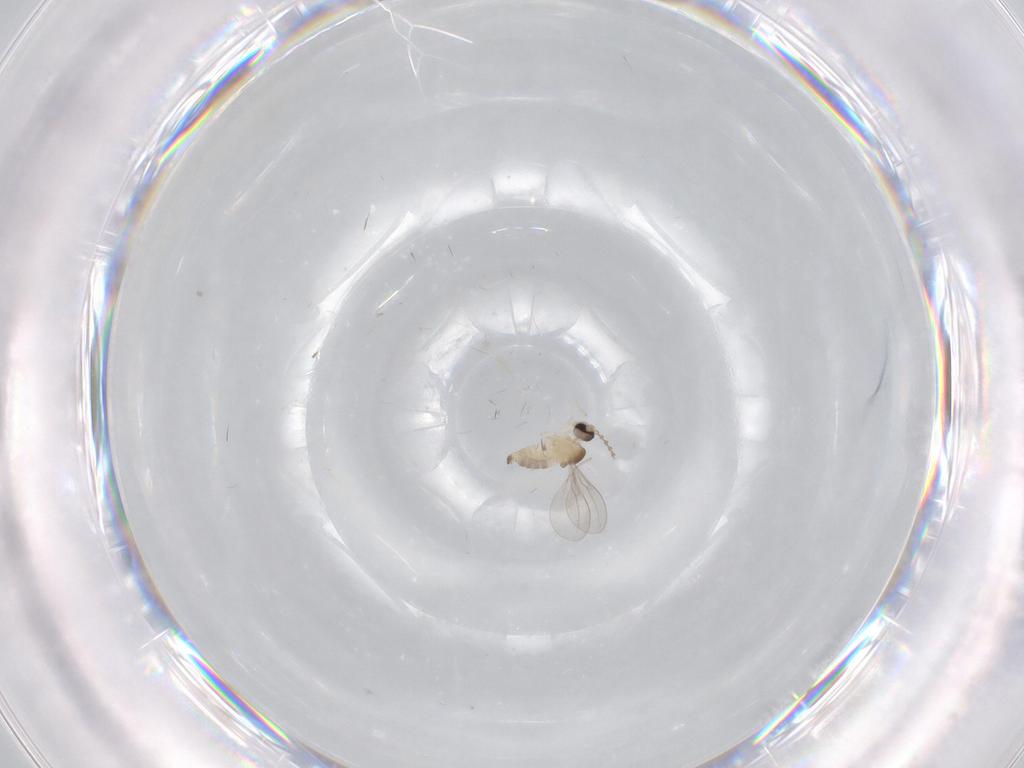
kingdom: Animalia
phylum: Arthropoda
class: Insecta
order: Diptera
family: Cecidomyiidae
